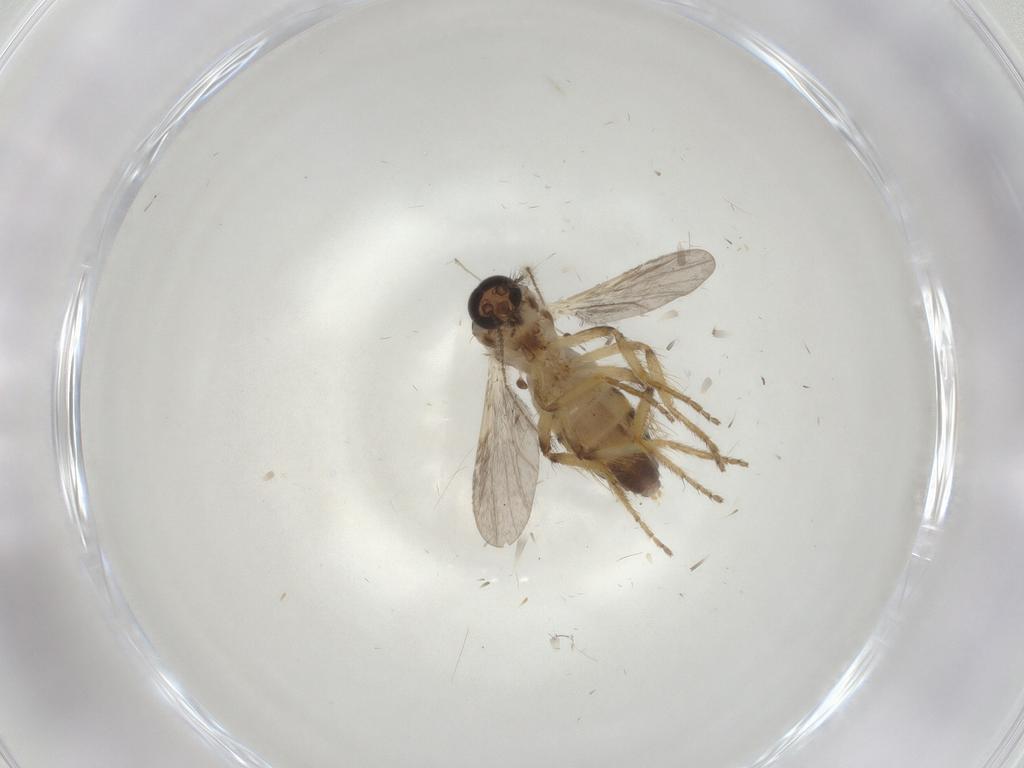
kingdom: Animalia
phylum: Arthropoda
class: Insecta
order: Diptera
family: Ceratopogonidae
